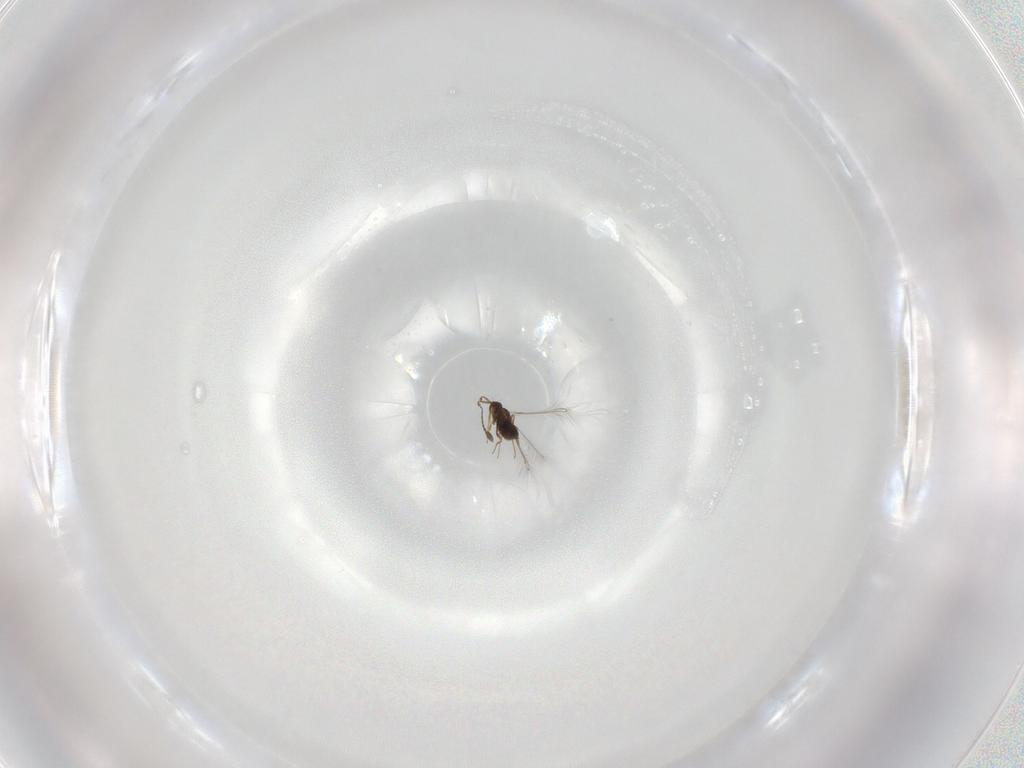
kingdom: Animalia
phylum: Arthropoda
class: Insecta
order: Hymenoptera
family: Mymaridae
